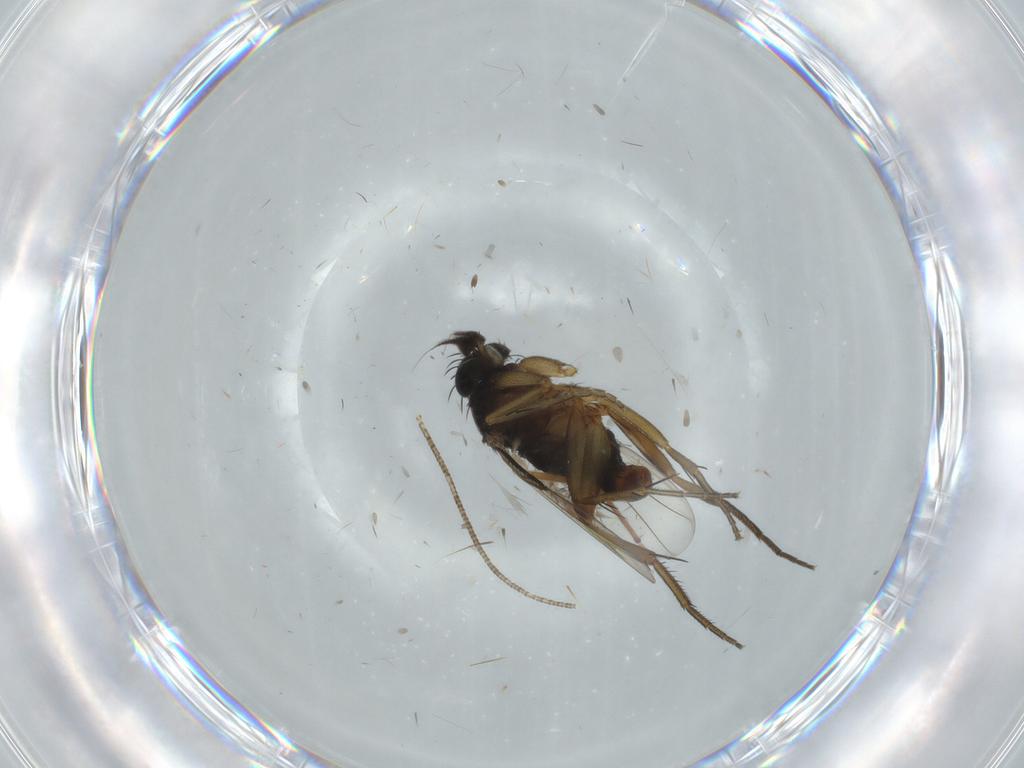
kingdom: Animalia
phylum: Arthropoda
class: Insecta
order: Diptera
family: Phoridae
